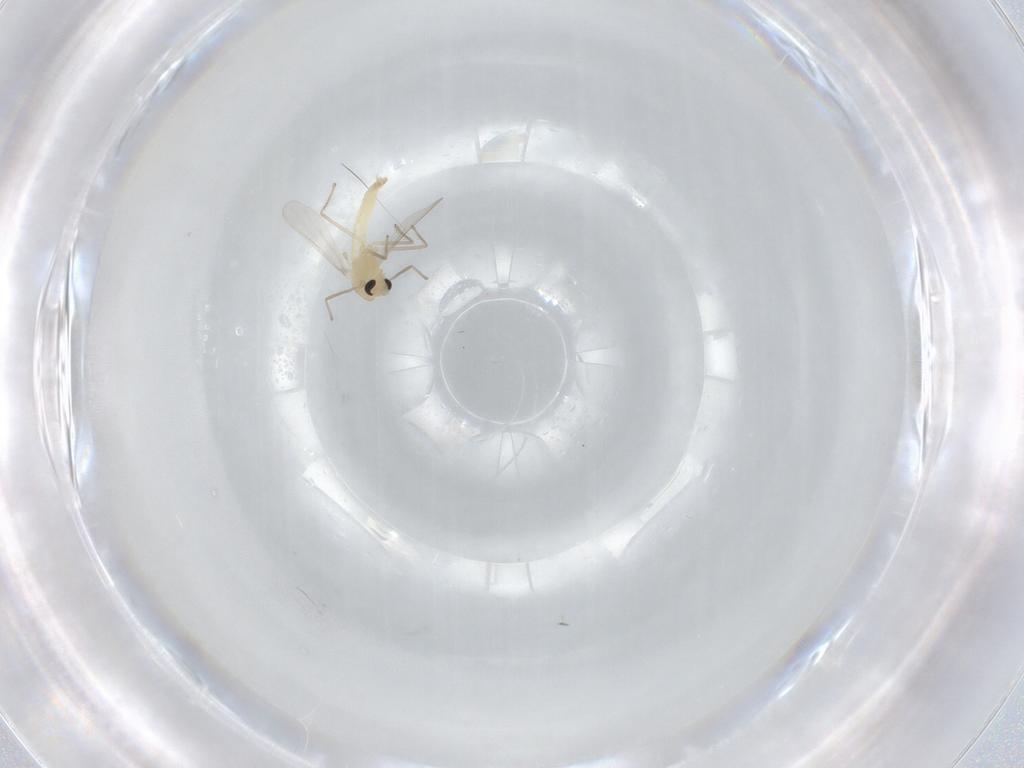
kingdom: Animalia
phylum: Arthropoda
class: Insecta
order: Diptera
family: Chironomidae
